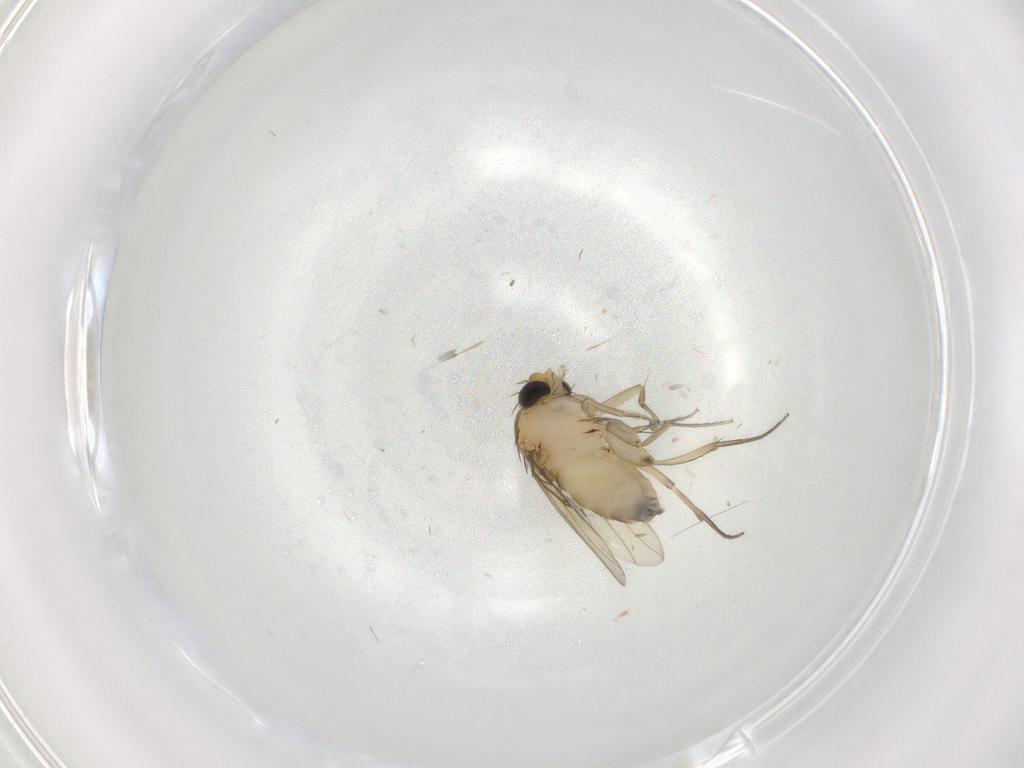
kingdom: Animalia
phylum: Arthropoda
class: Insecta
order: Diptera
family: Phoridae
